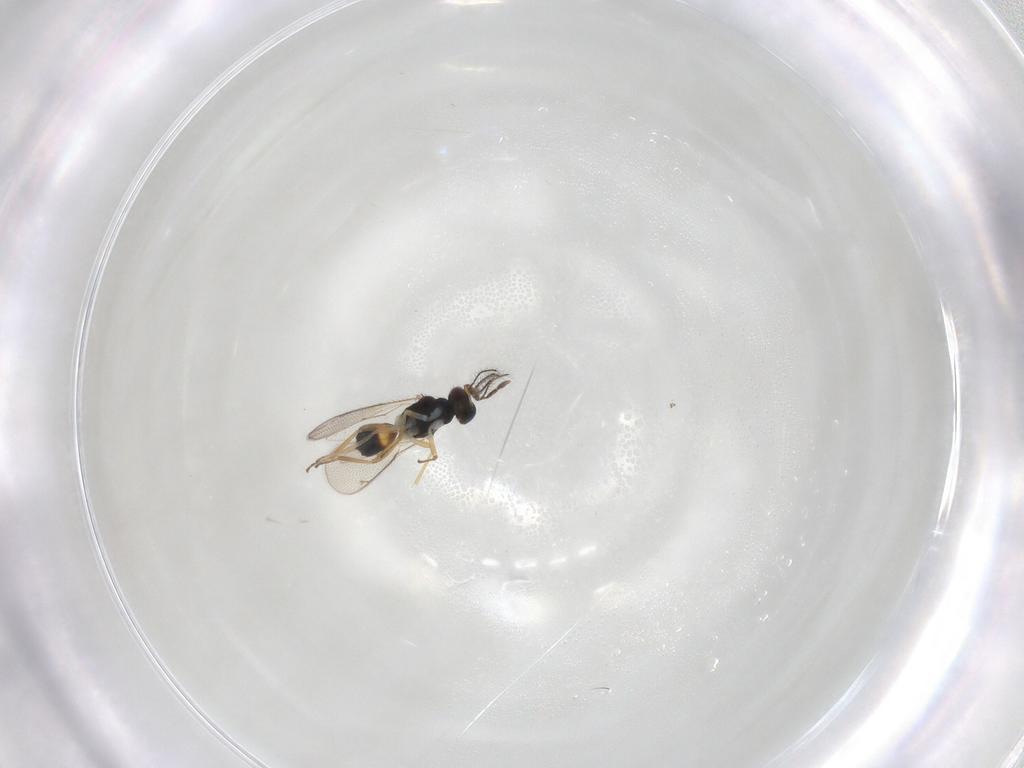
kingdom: Animalia
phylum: Arthropoda
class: Insecta
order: Hymenoptera
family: Eulophidae
